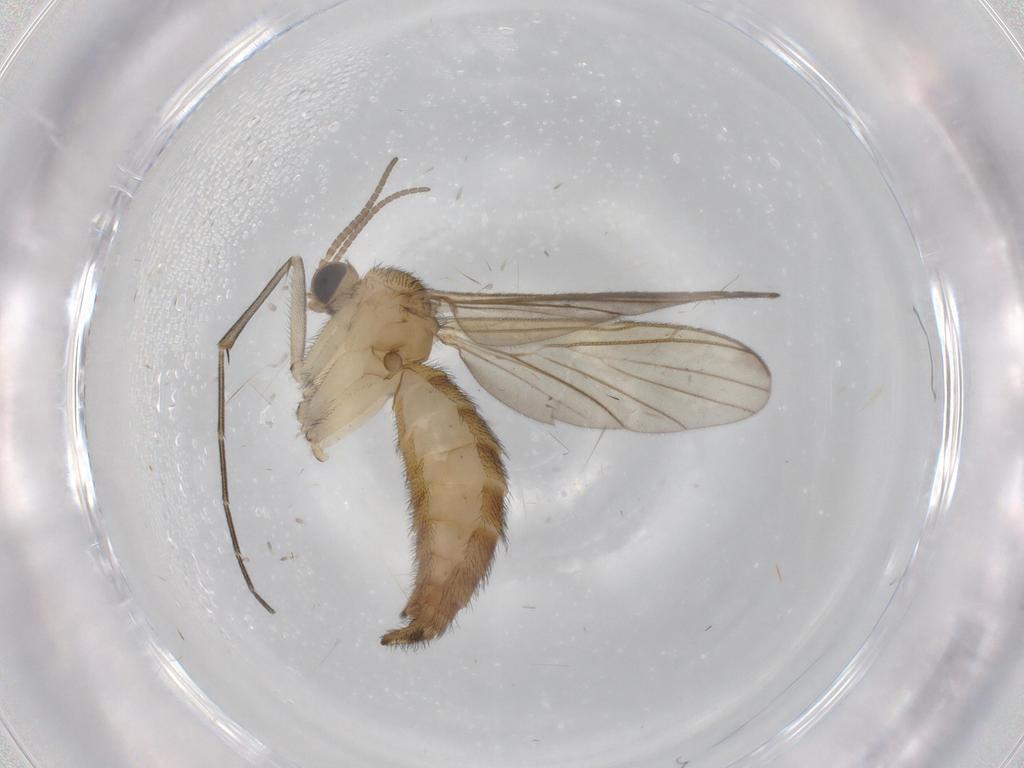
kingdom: Animalia
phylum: Arthropoda
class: Insecta
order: Diptera
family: Cecidomyiidae
